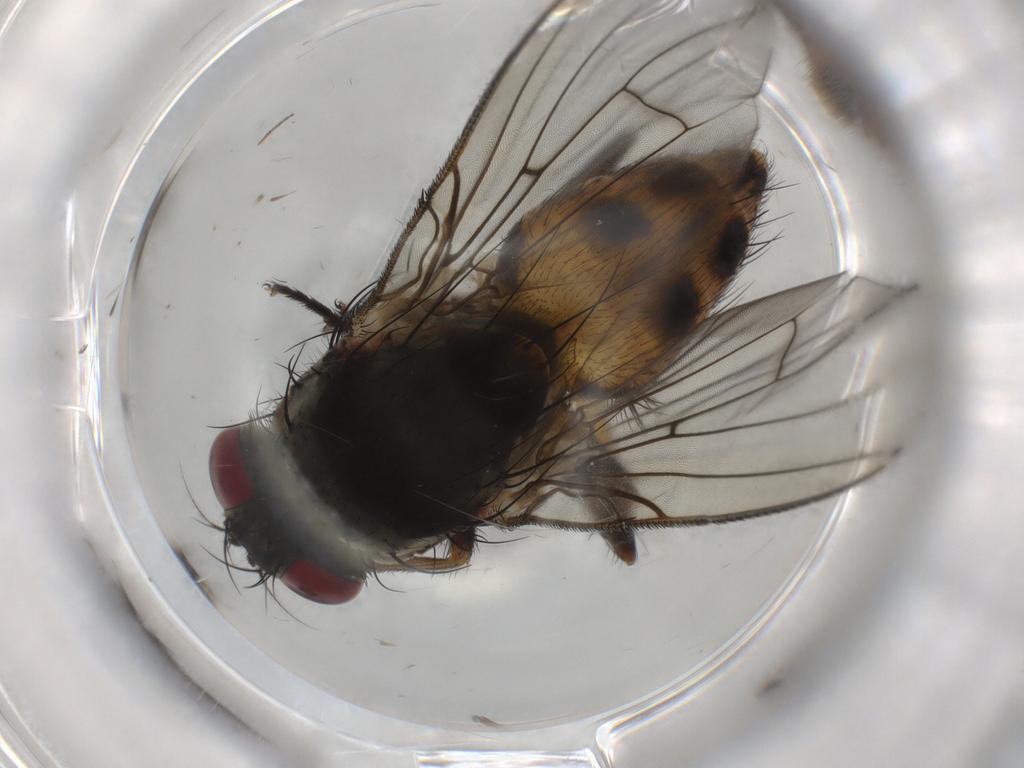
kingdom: Animalia
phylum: Arthropoda
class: Insecta
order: Diptera
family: Muscidae
